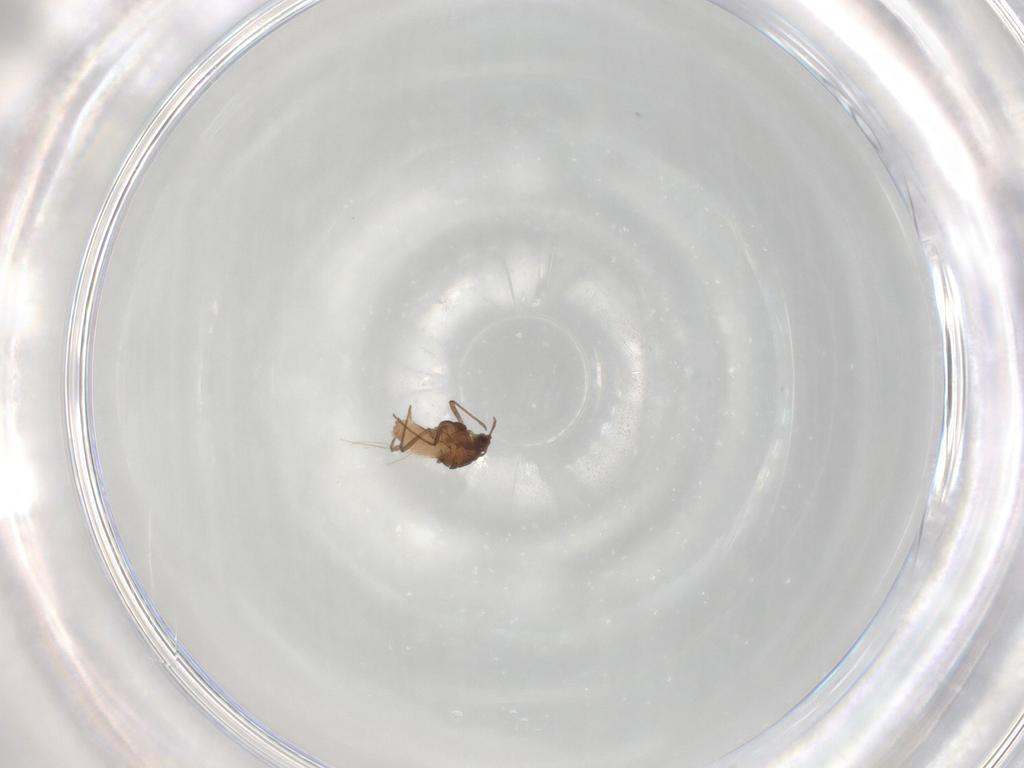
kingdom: Animalia
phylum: Arthropoda
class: Insecta
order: Hemiptera
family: Aphididae
